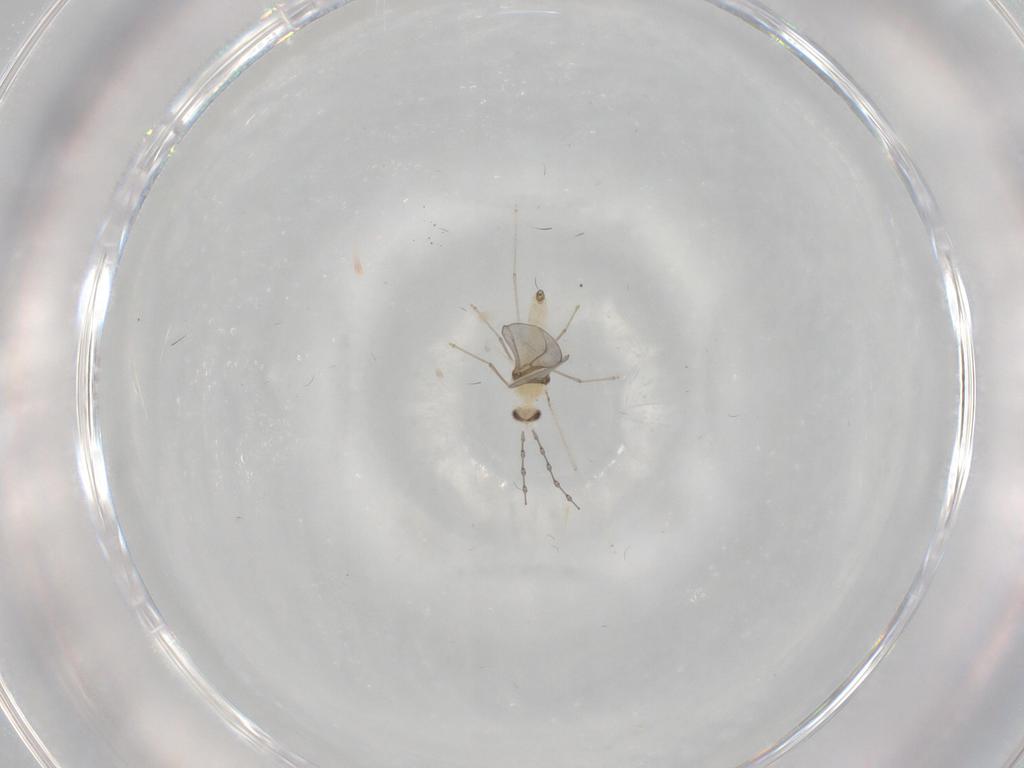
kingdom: Animalia
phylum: Arthropoda
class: Insecta
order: Diptera
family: Cecidomyiidae
